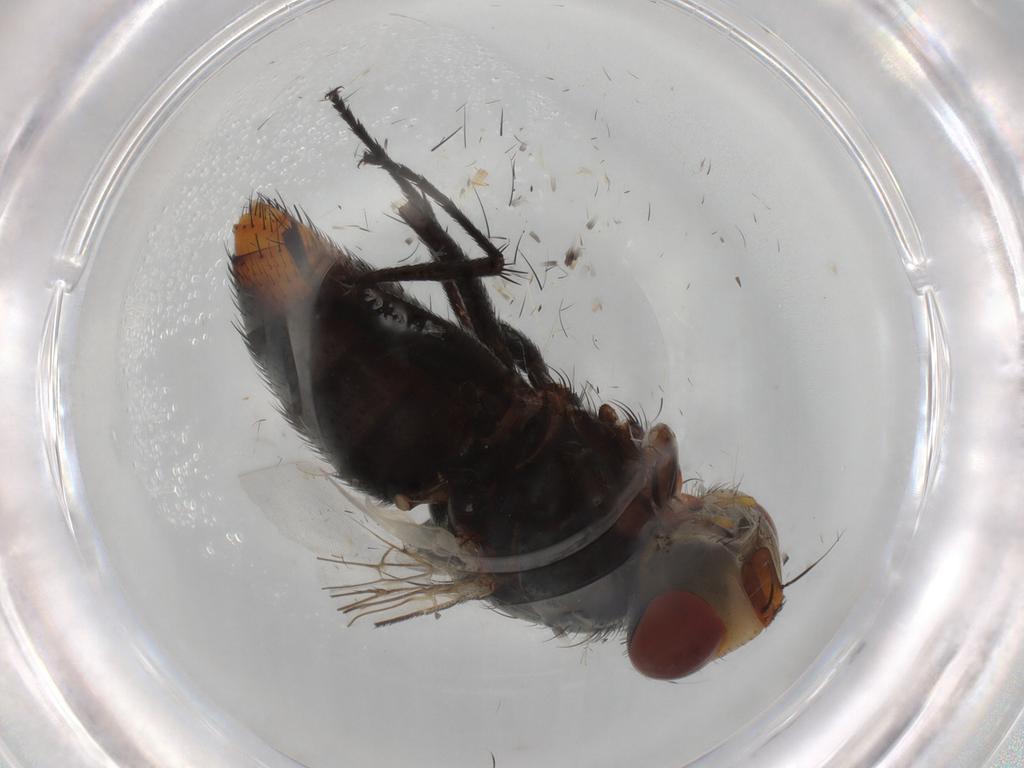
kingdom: Animalia
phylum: Arthropoda
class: Insecta
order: Diptera
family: Sarcophagidae
